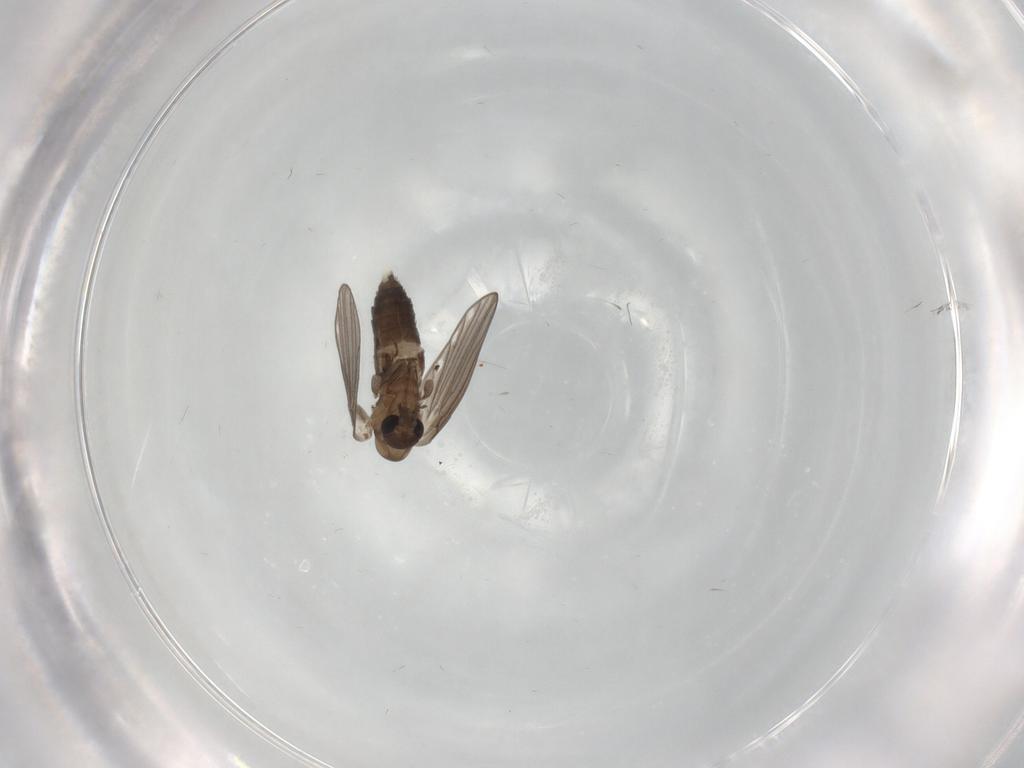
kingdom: Animalia
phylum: Arthropoda
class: Insecta
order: Diptera
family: Psychodidae
